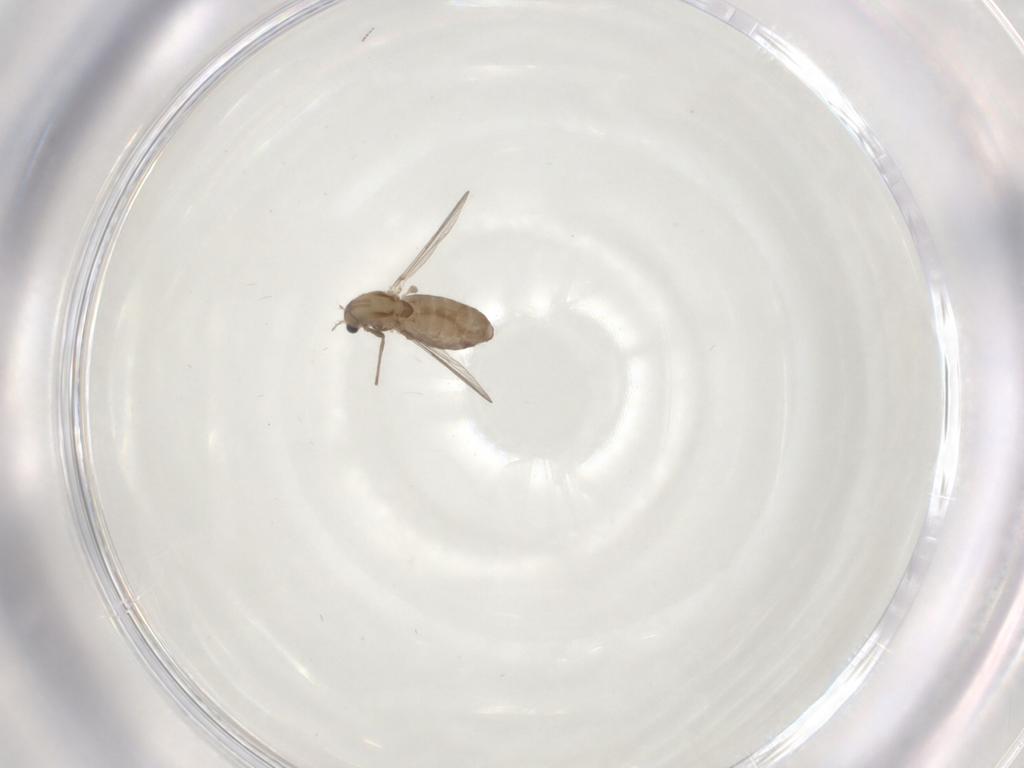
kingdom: Animalia
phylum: Arthropoda
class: Insecta
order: Diptera
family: Chironomidae
